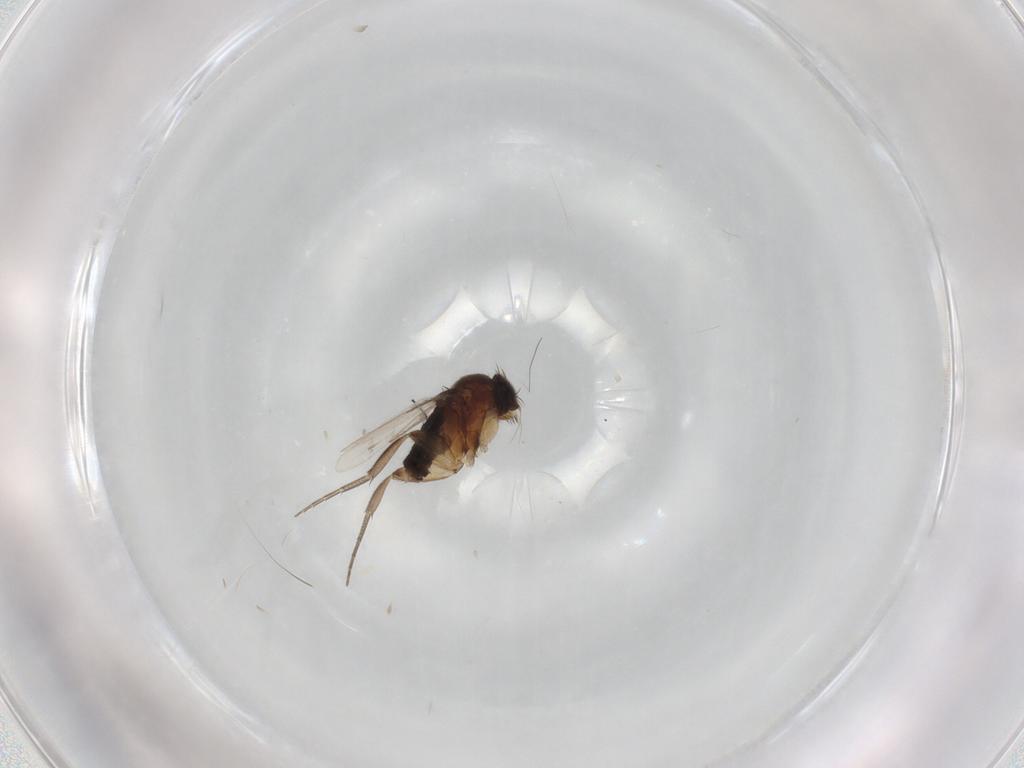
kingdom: Animalia
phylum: Arthropoda
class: Insecta
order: Diptera
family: Phoridae
